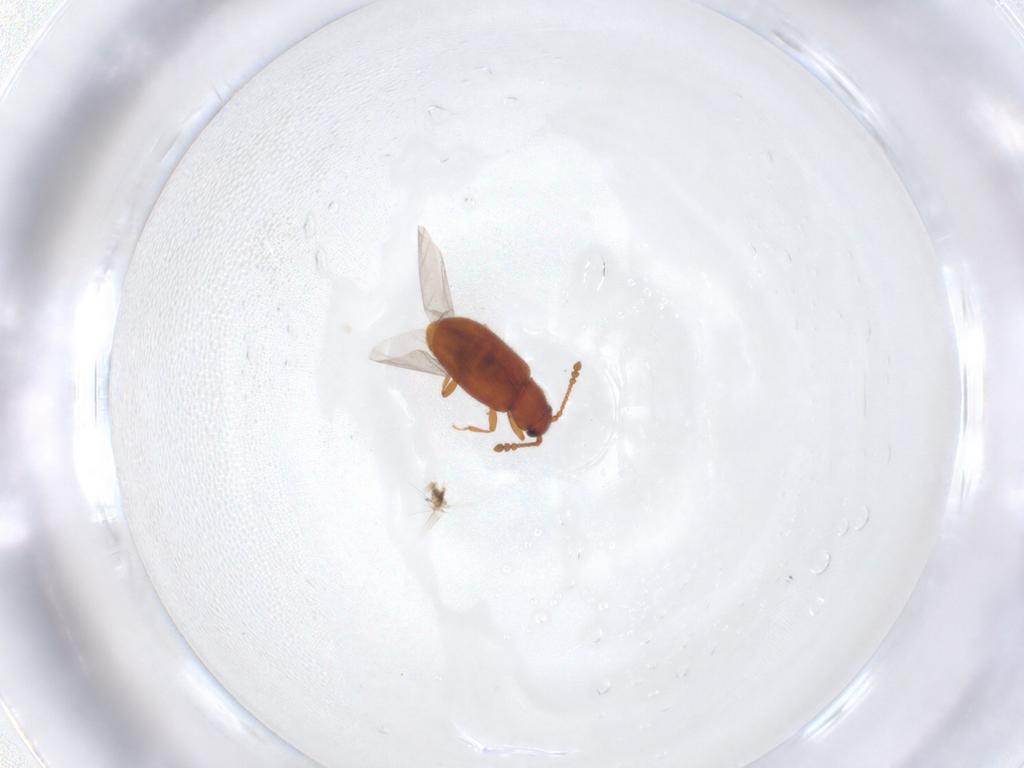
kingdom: Animalia
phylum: Arthropoda
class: Insecta
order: Coleoptera
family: Cryptophagidae
